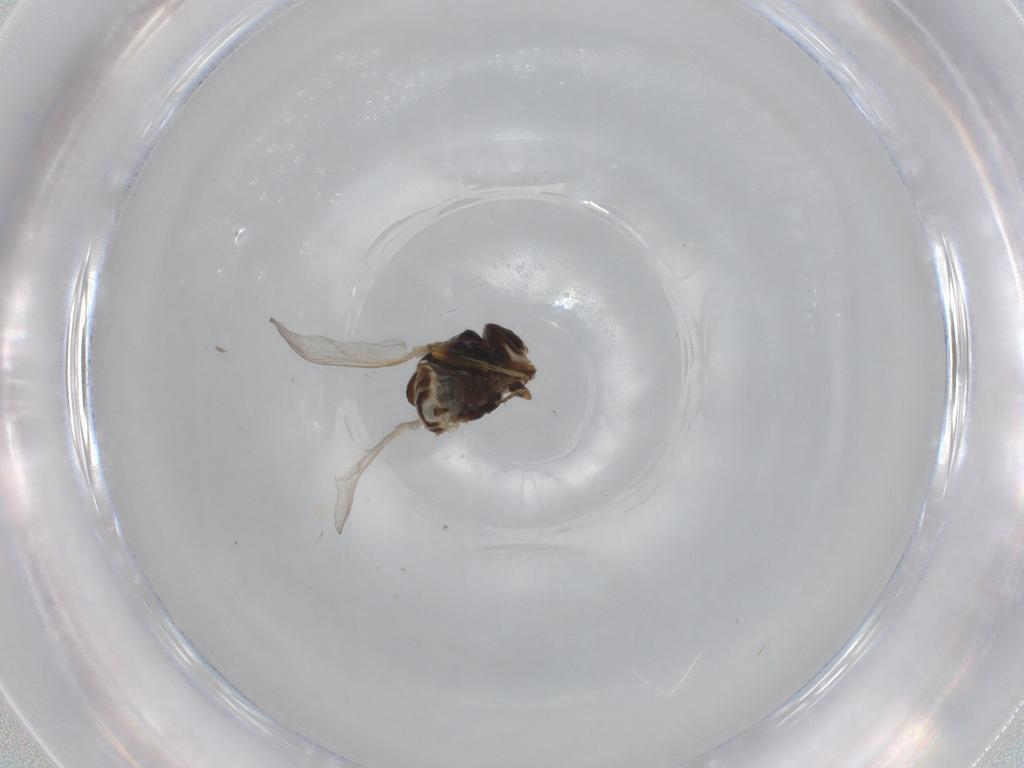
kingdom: Animalia
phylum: Arthropoda
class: Insecta
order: Diptera
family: Chloropidae
